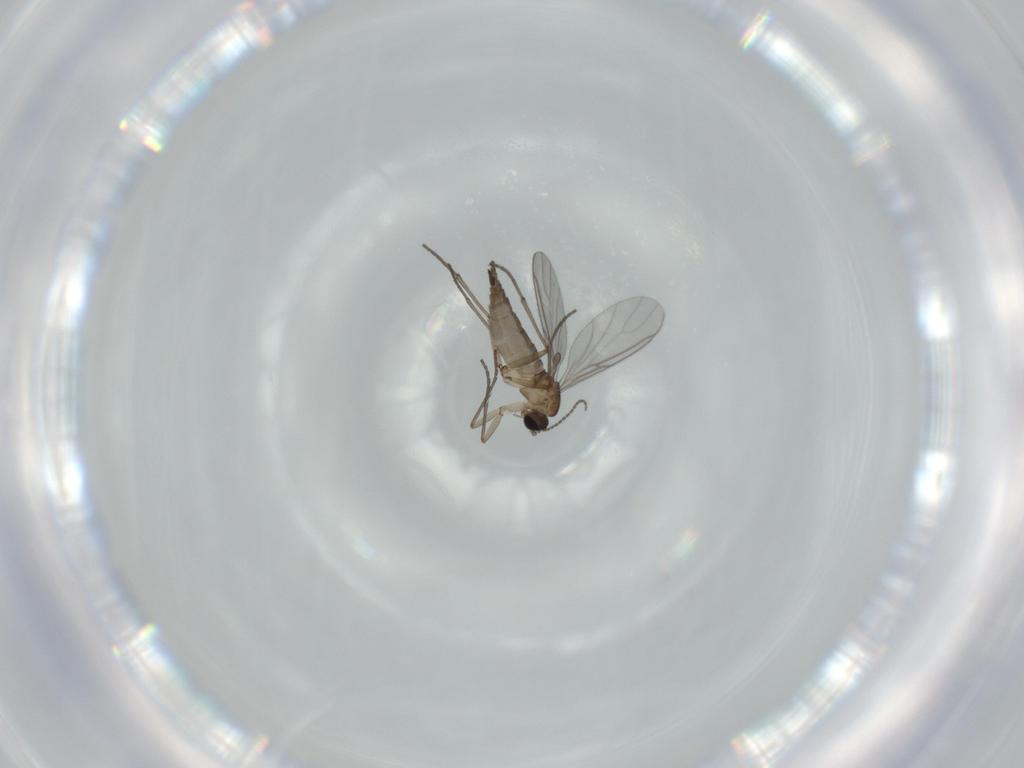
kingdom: Animalia
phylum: Arthropoda
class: Insecta
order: Diptera
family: Sciaridae
